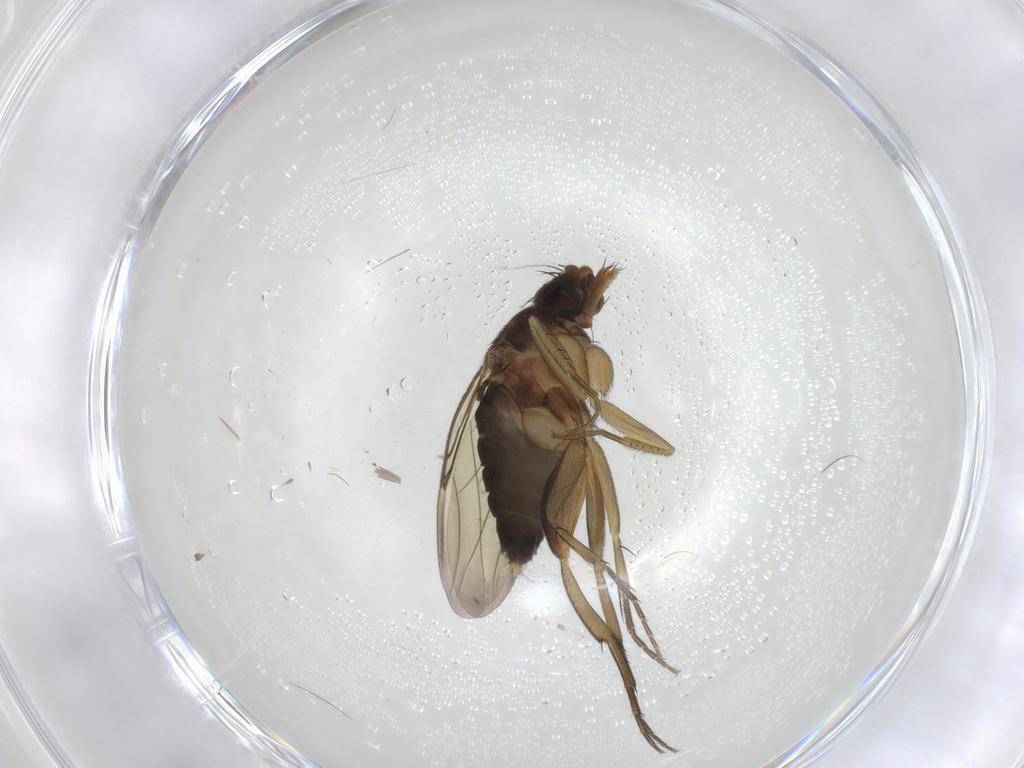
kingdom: Animalia
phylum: Arthropoda
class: Insecta
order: Diptera
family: Phoridae
